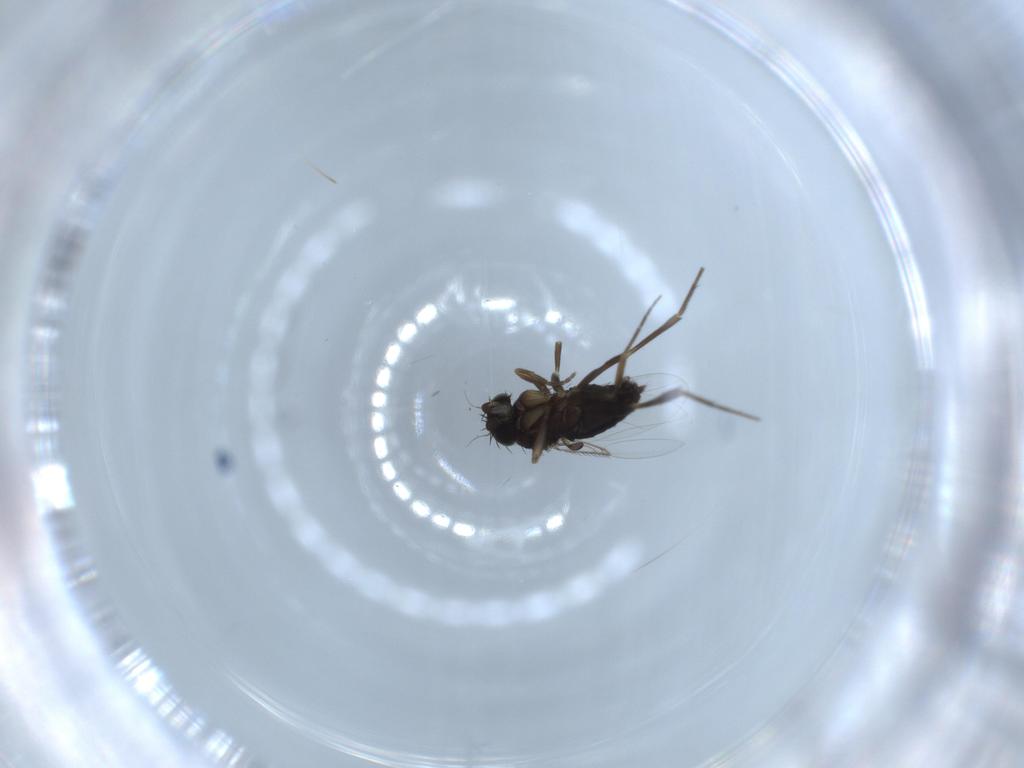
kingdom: Animalia
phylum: Arthropoda
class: Insecta
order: Diptera
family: Phoridae
